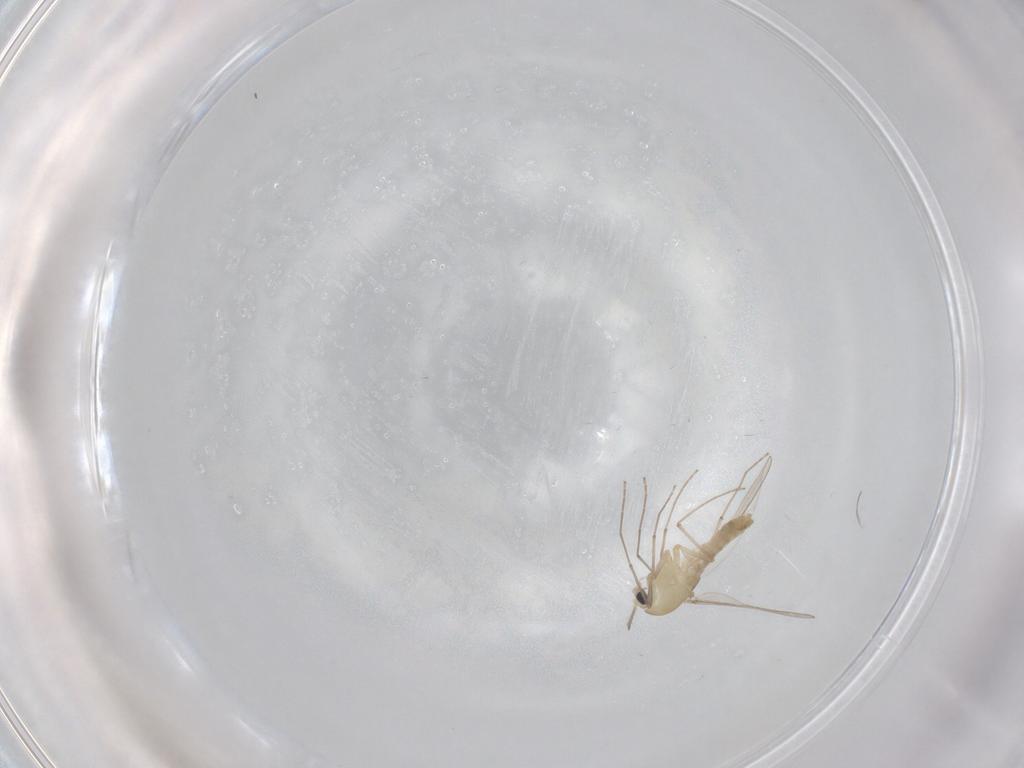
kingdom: Animalia
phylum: Arthropoda
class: Insecta
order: Diptera
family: Chironomidae
